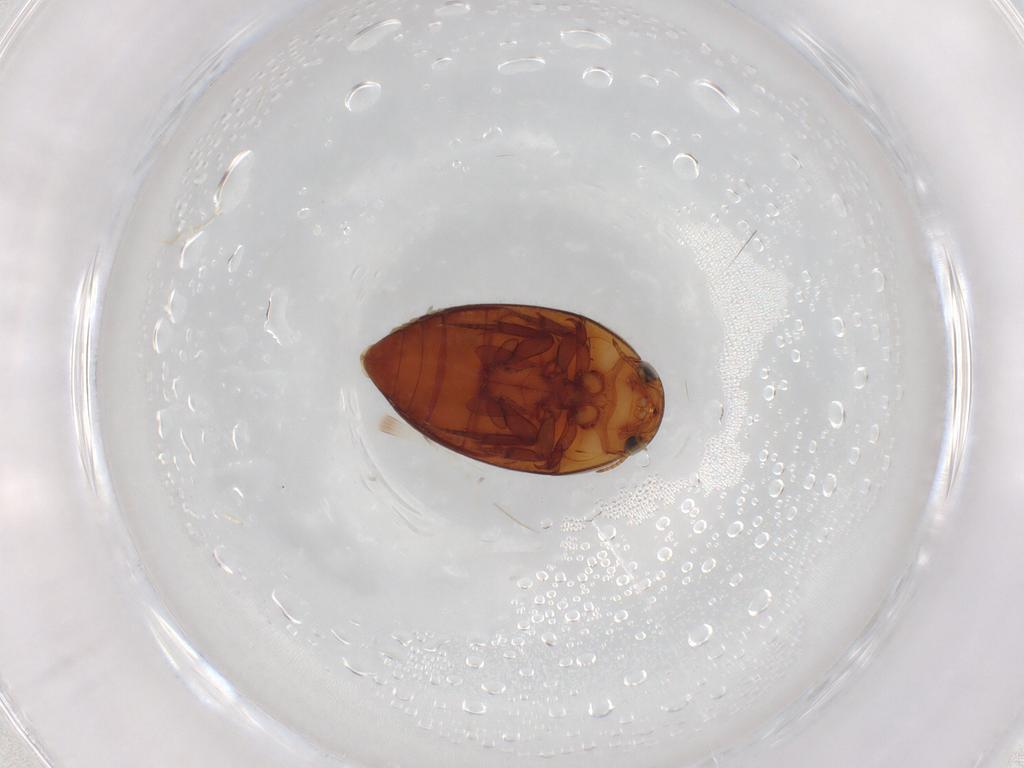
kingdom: Animalia
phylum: Arthropoda
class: Insecta
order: Coleoptera
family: Noteridae
